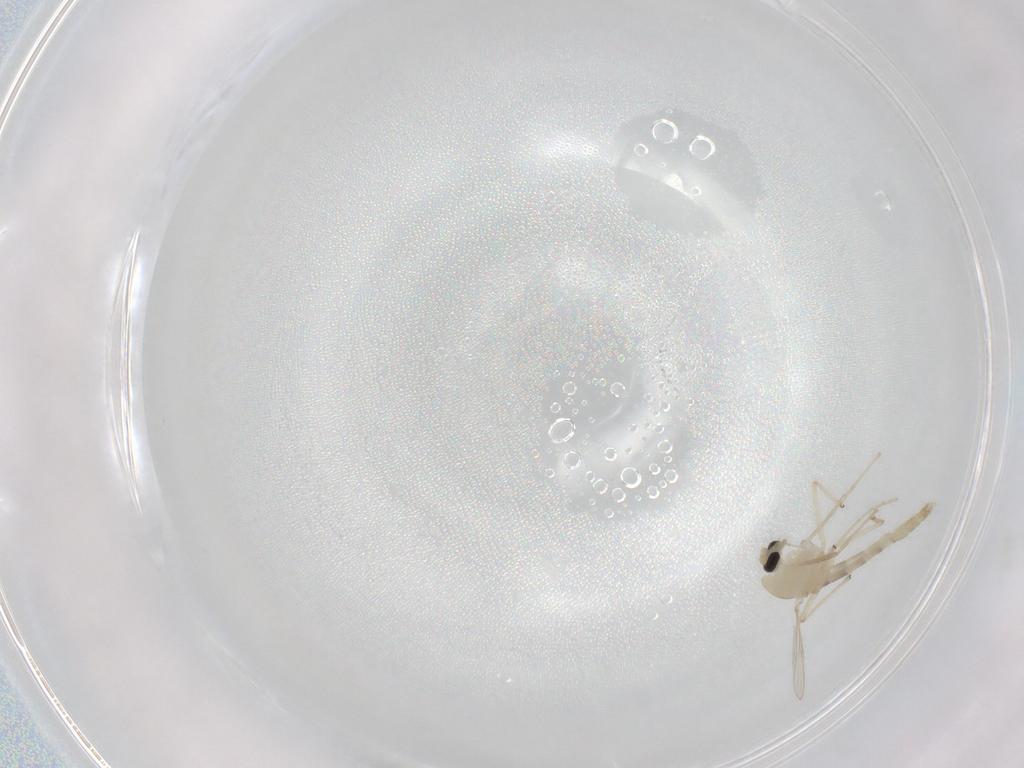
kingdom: Animalia
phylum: Arthropoda
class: Insecta
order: Diptera
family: Chironomidae
